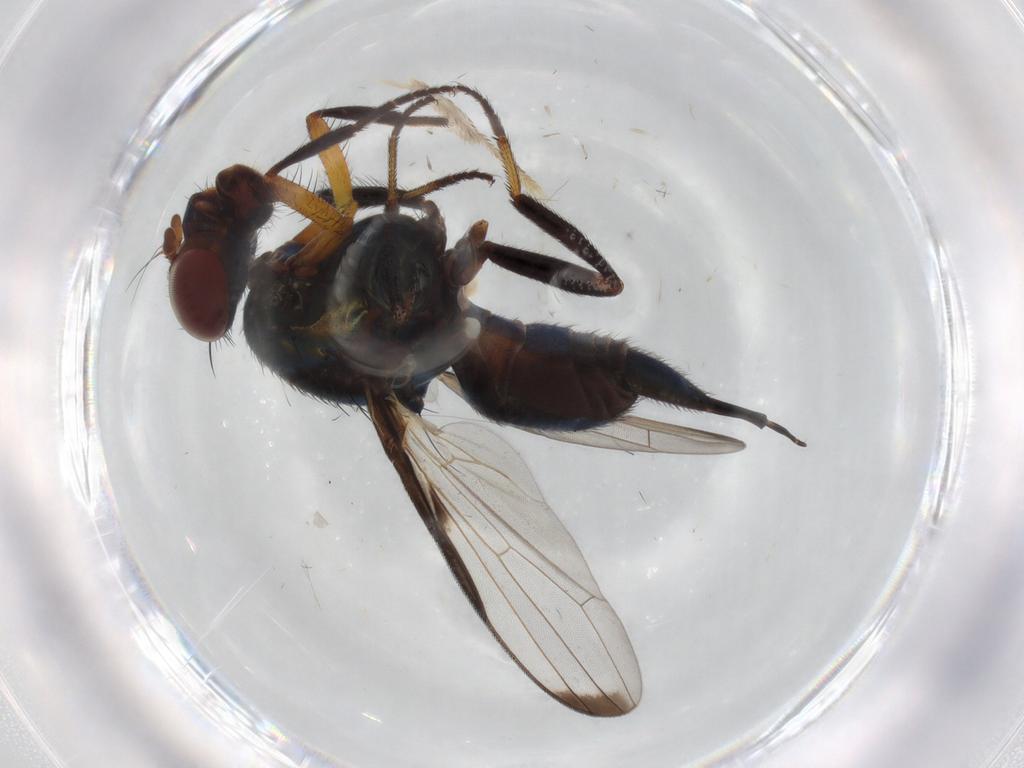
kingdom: Animalia
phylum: Arthropoda
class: Insecta
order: Diptera
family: Ulidiidae
